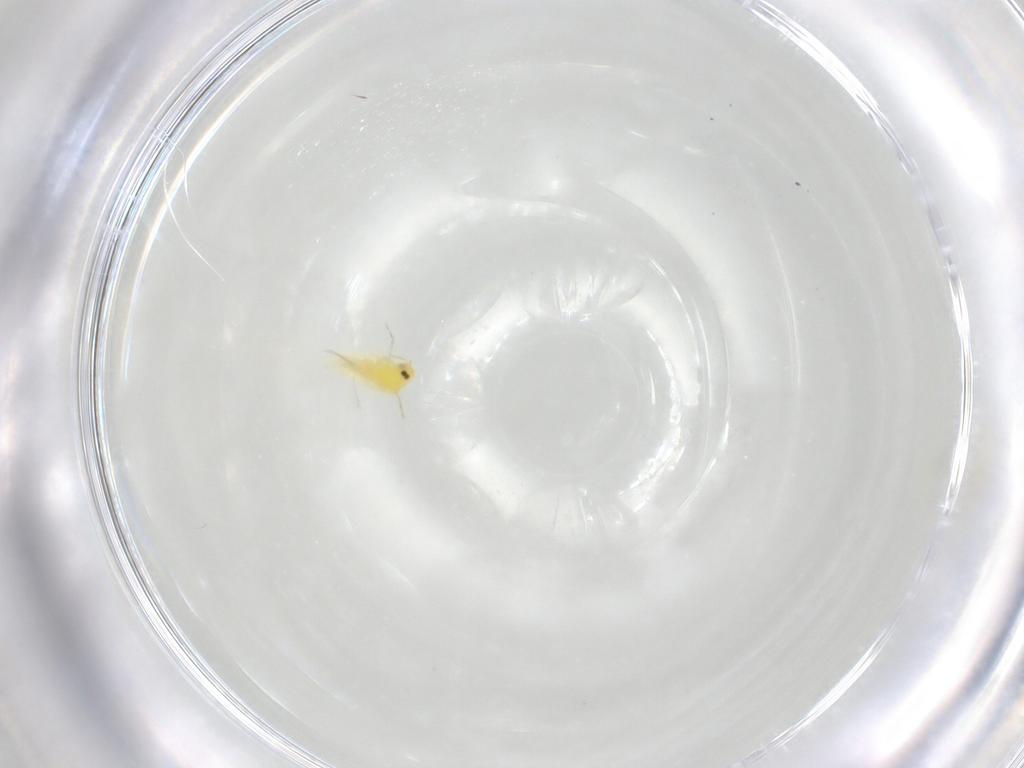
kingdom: Animalia
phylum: Arthropoda
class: Insecta
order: Hemiptera
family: Aleyrodidae
